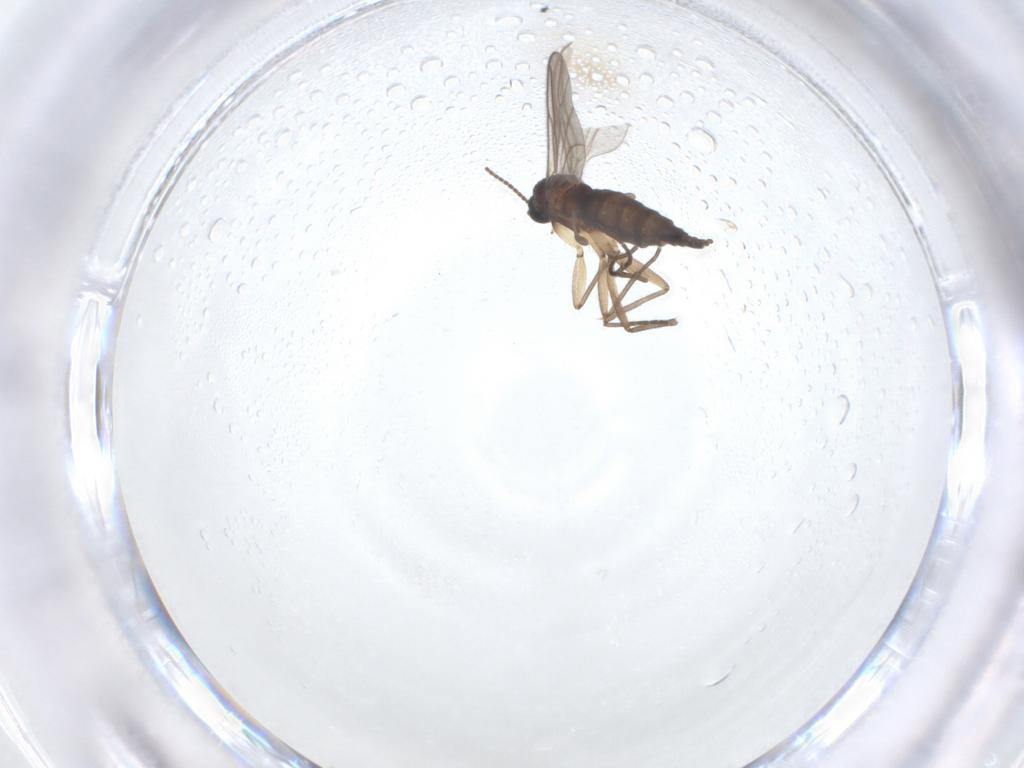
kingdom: Animalia
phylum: Arthropoda
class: Insecta
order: Diptera
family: Sciaridae
